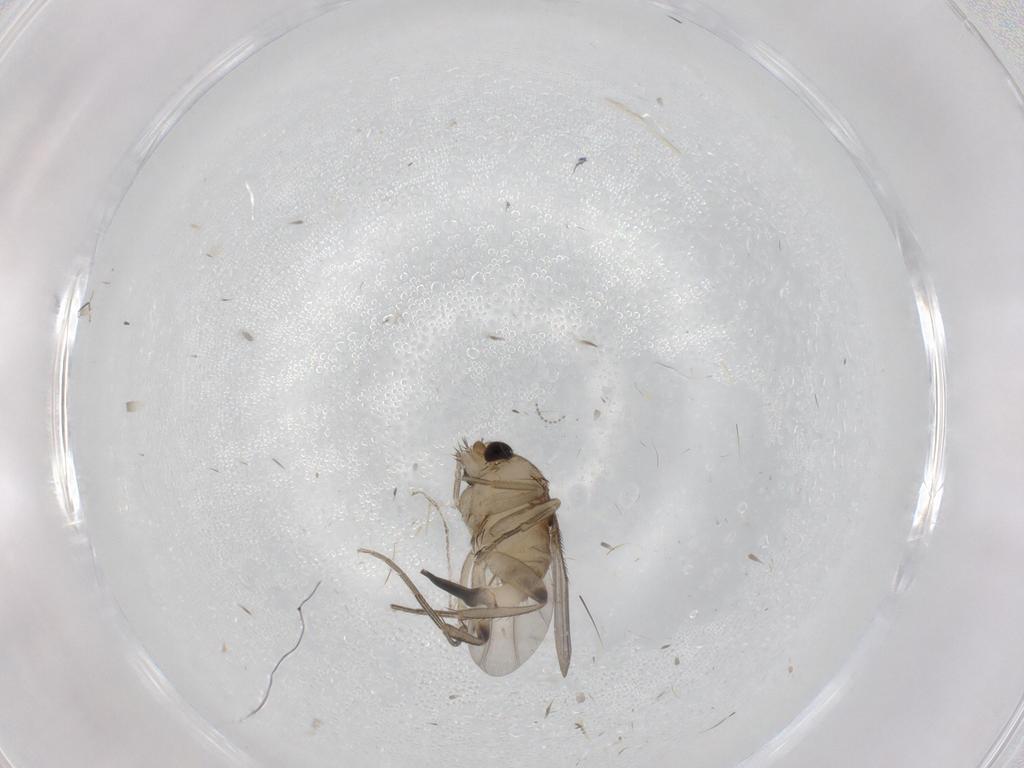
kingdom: Animalia
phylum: Arthropoda
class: Insecta
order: Diptera
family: Phoridae
